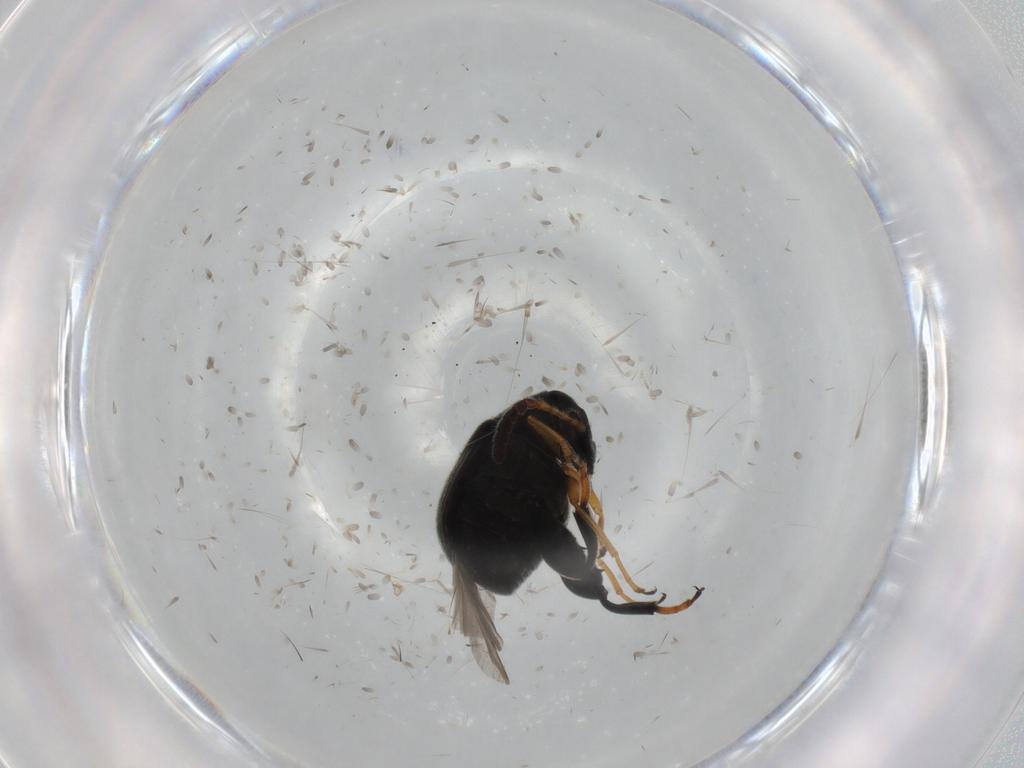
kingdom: Animalia
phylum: Arthropoda
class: Insecta
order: Coleoptera
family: Chrysomelidae
